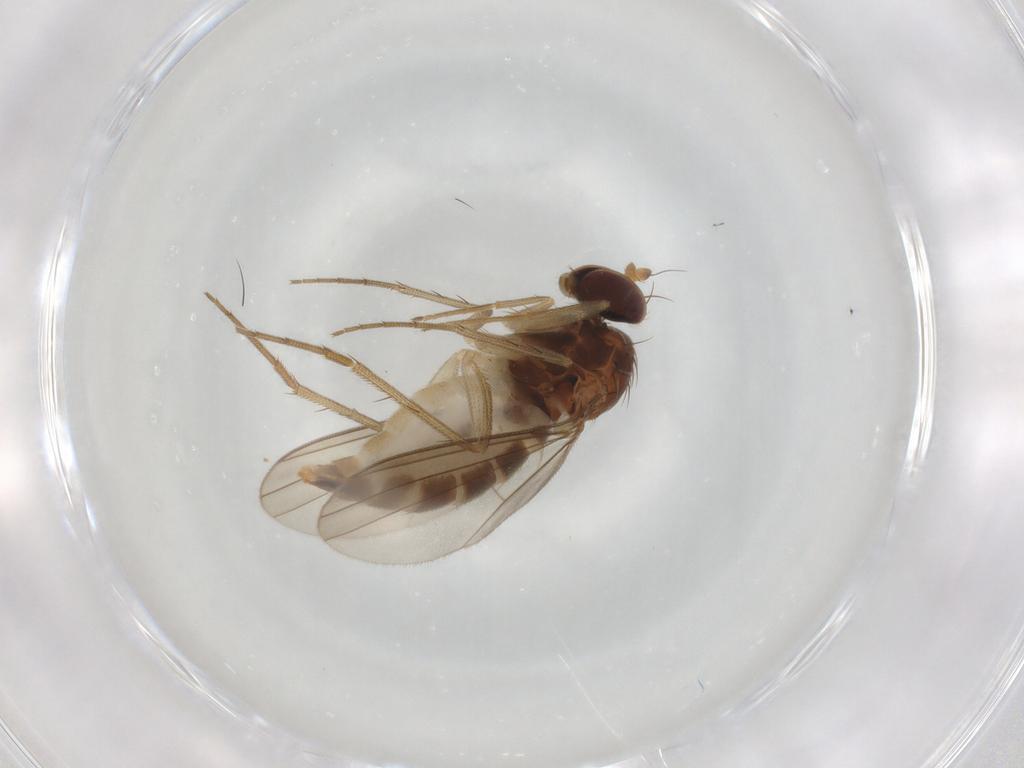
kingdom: Animalia
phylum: Arthropoda
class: Insecta
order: Diptera
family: Dolichopodidae
